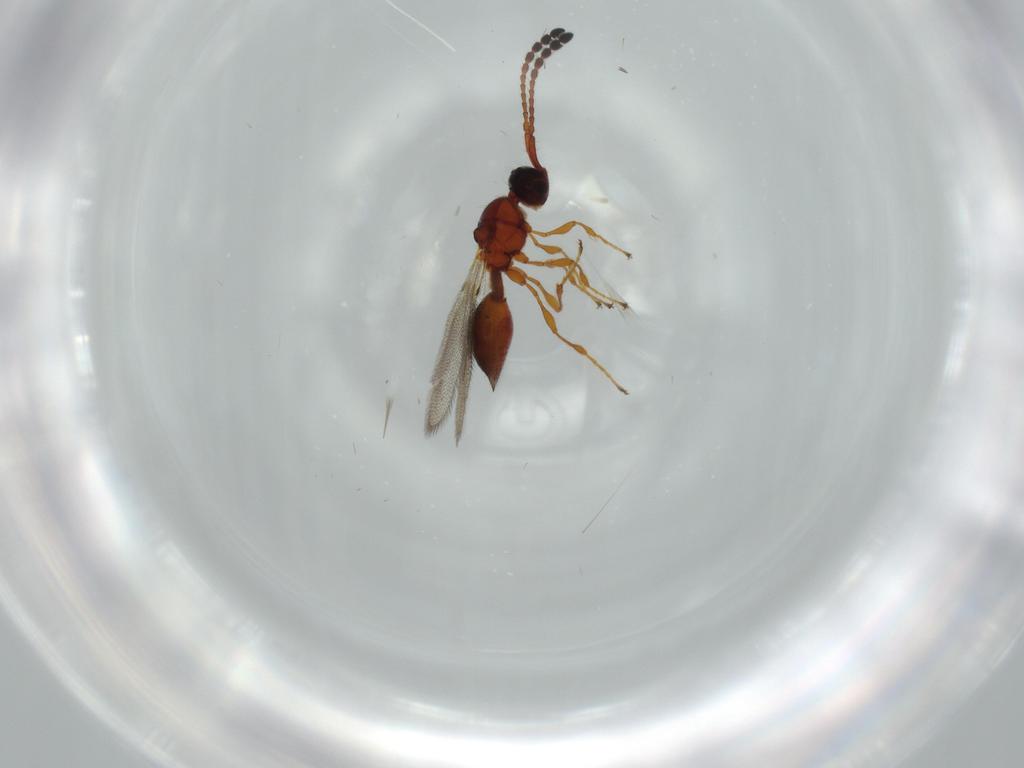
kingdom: Animalia
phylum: Arthropoda
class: Insecta
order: Hymenoptera
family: Diapriidae
